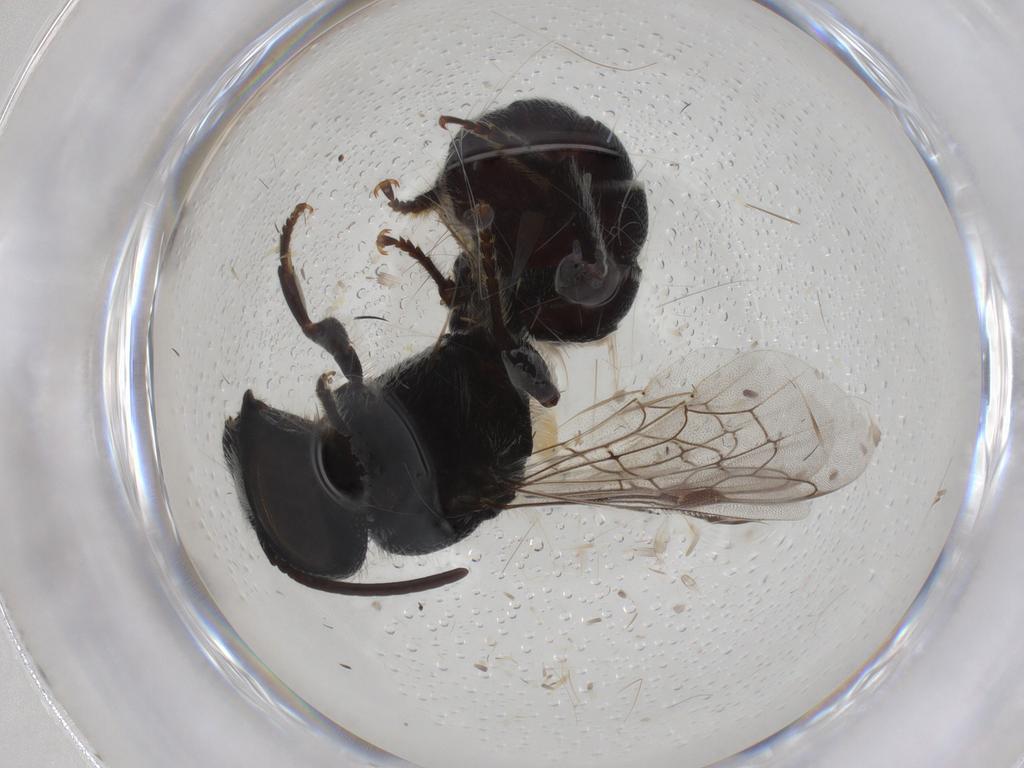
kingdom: Animalia
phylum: Arthropoda
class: Insecta
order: Hymenoptera
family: Megachilidae
